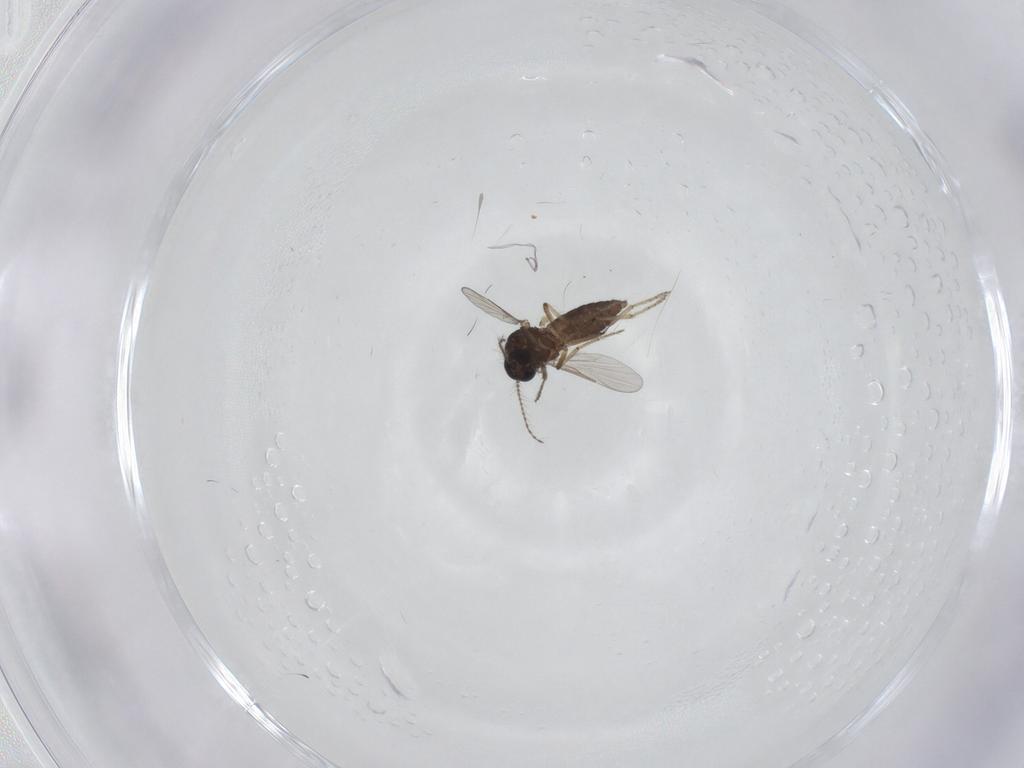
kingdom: Animalia
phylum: Arthropoda
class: Insecta
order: Diptera
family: Ceratopogonidae
